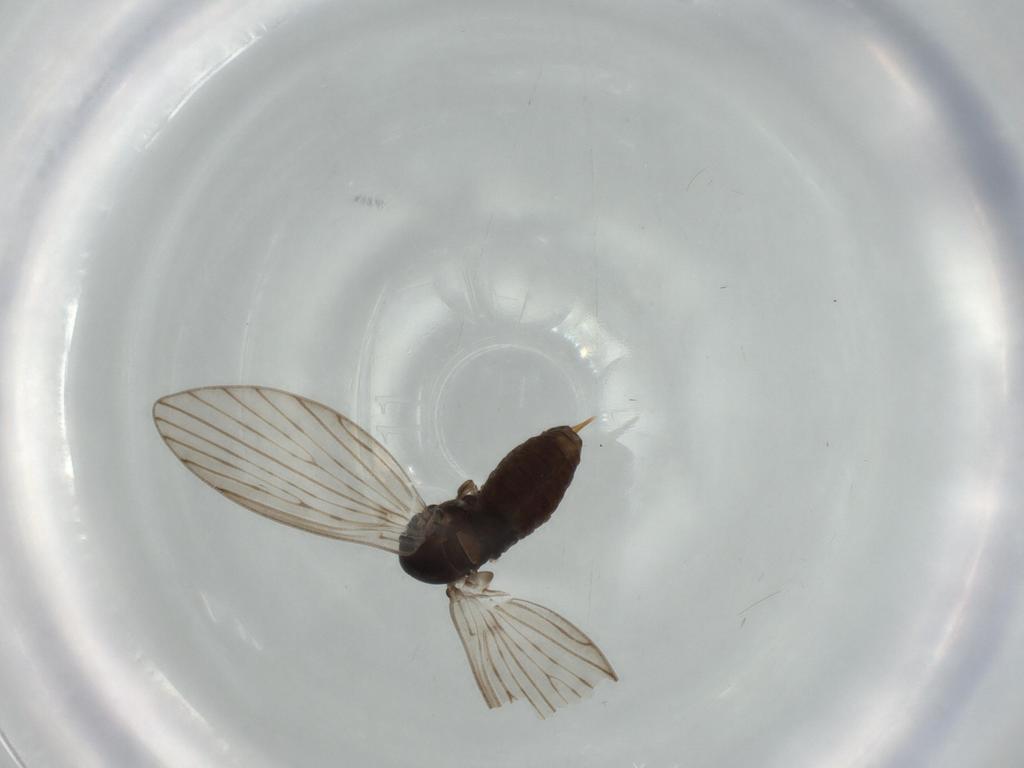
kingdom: Animalia
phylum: Arthropoda
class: Insecta
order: Diptera
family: Psychodidae
